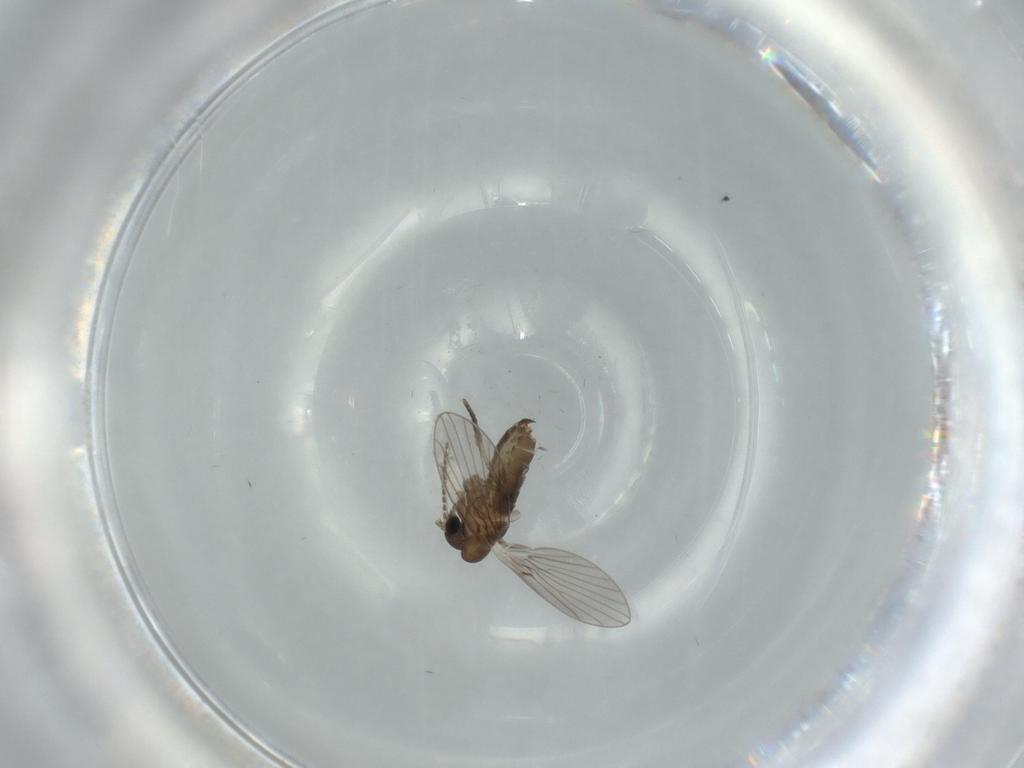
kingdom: Animalia
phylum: Arthropoda
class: Insecta
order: Diptera
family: Psychodidae
